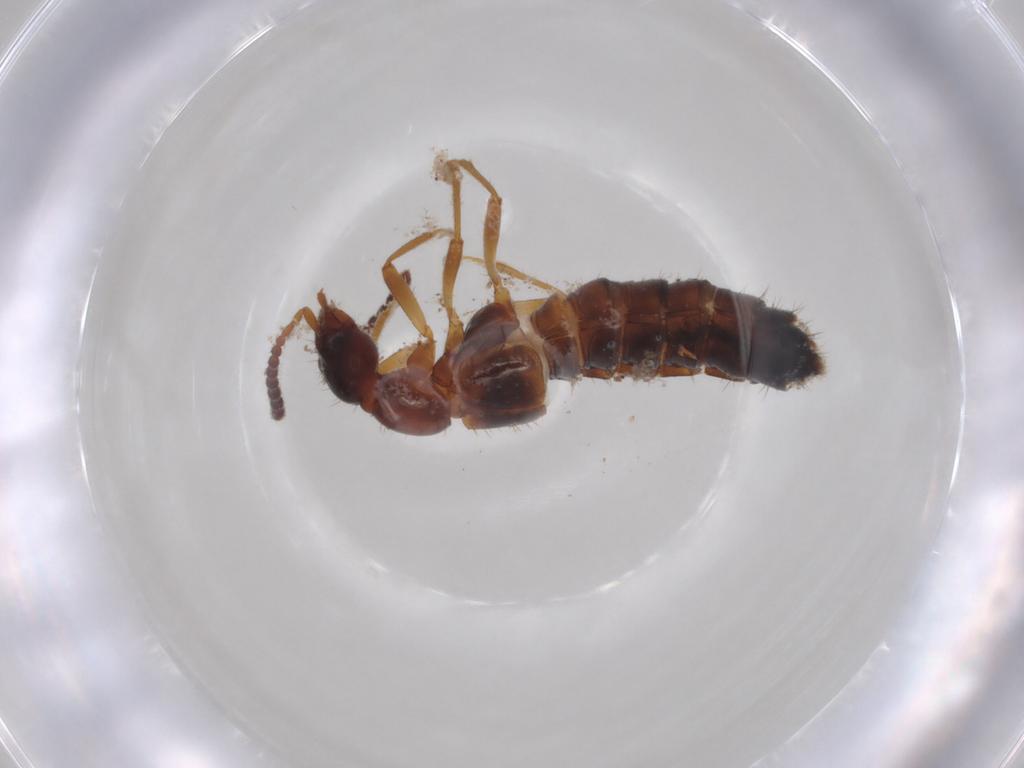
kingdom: Animalia
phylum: Arthropoda
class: Insecta
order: Coleoptera
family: Staphylinidae
